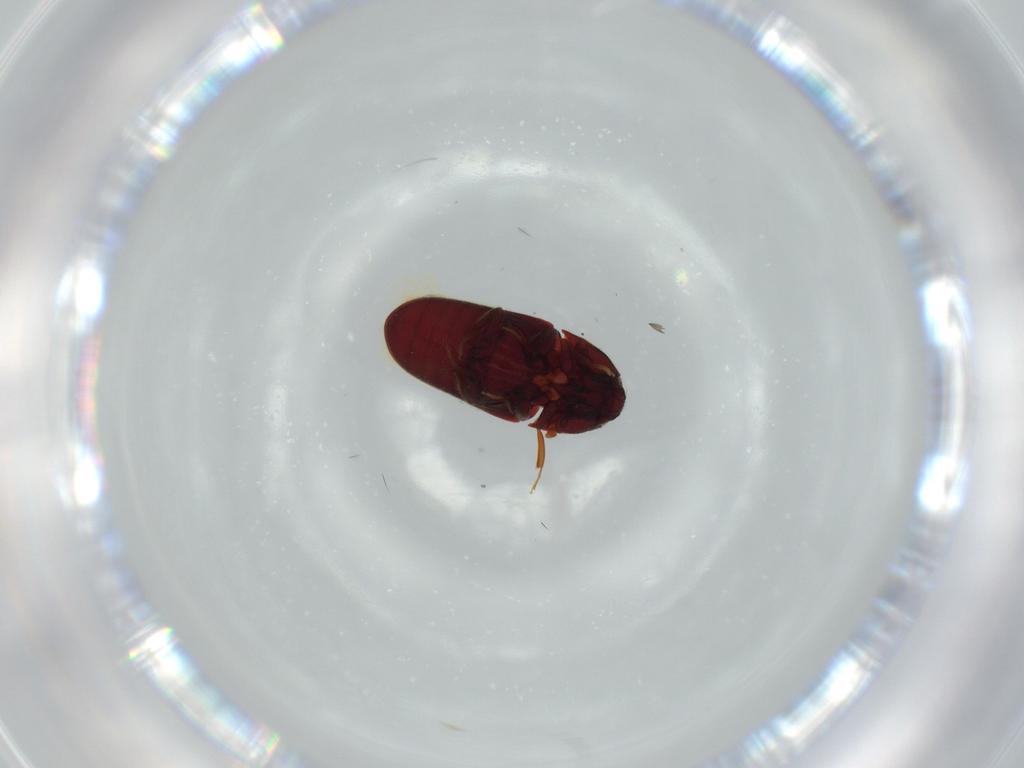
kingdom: Animalia
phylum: Arthropoda
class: Insecta
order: Coleoptera
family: Throscidae
